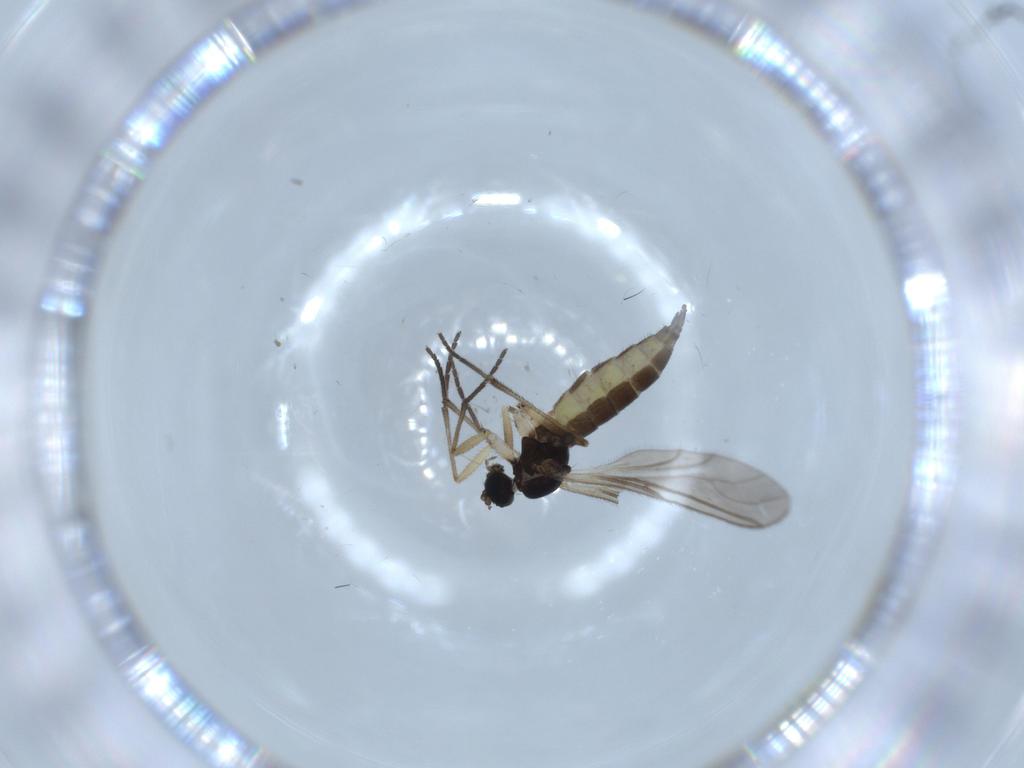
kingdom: Animalia
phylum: Arthropoda
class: Insecta
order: Diptera
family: Sciaridae
